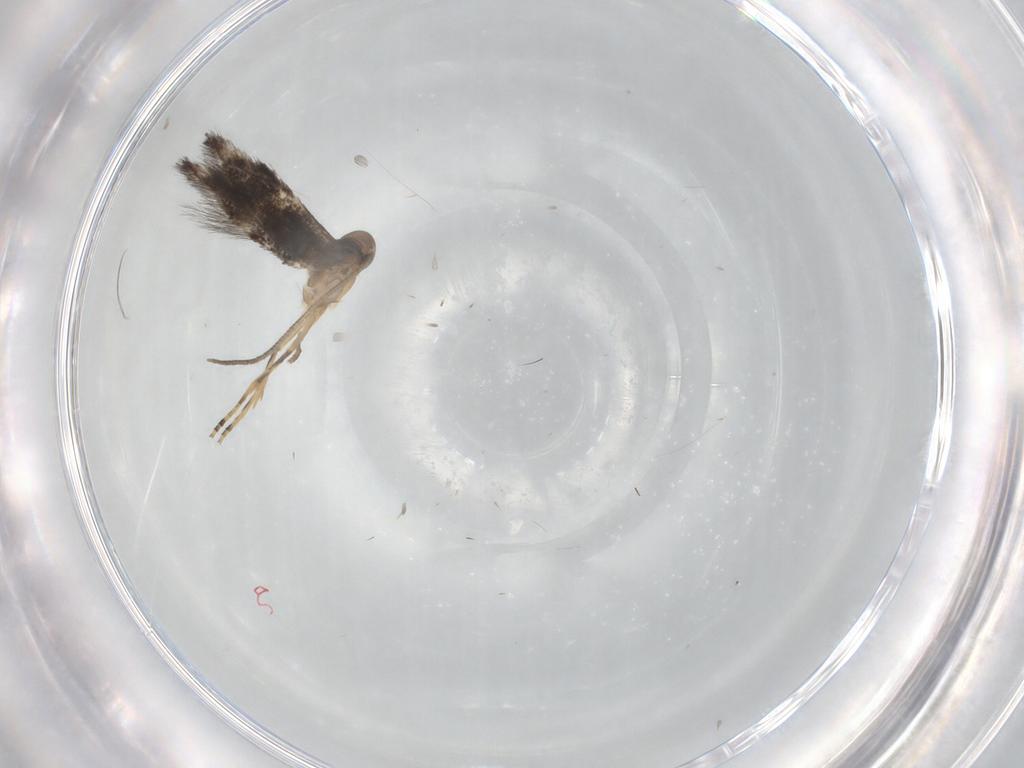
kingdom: Animalia
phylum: Arthropoda
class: Insecta
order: Lepidoptera
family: Elachistidae
